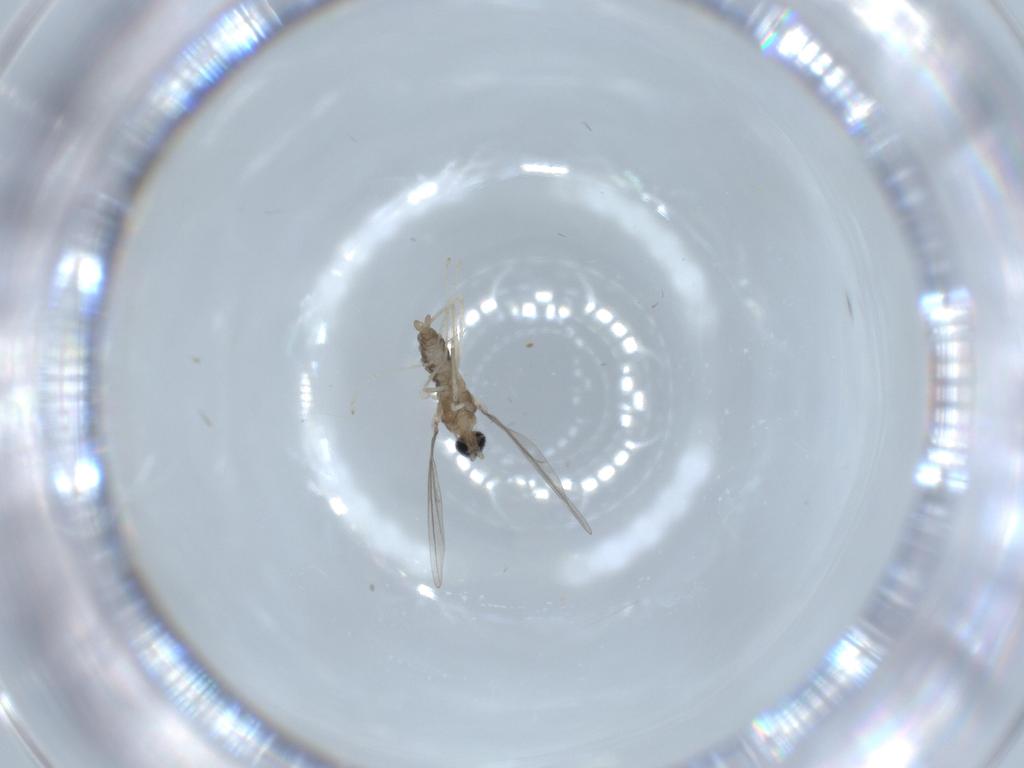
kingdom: Animalia
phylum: Arthropoda
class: Insecta
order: Diptera
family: Cecidomyiidae
